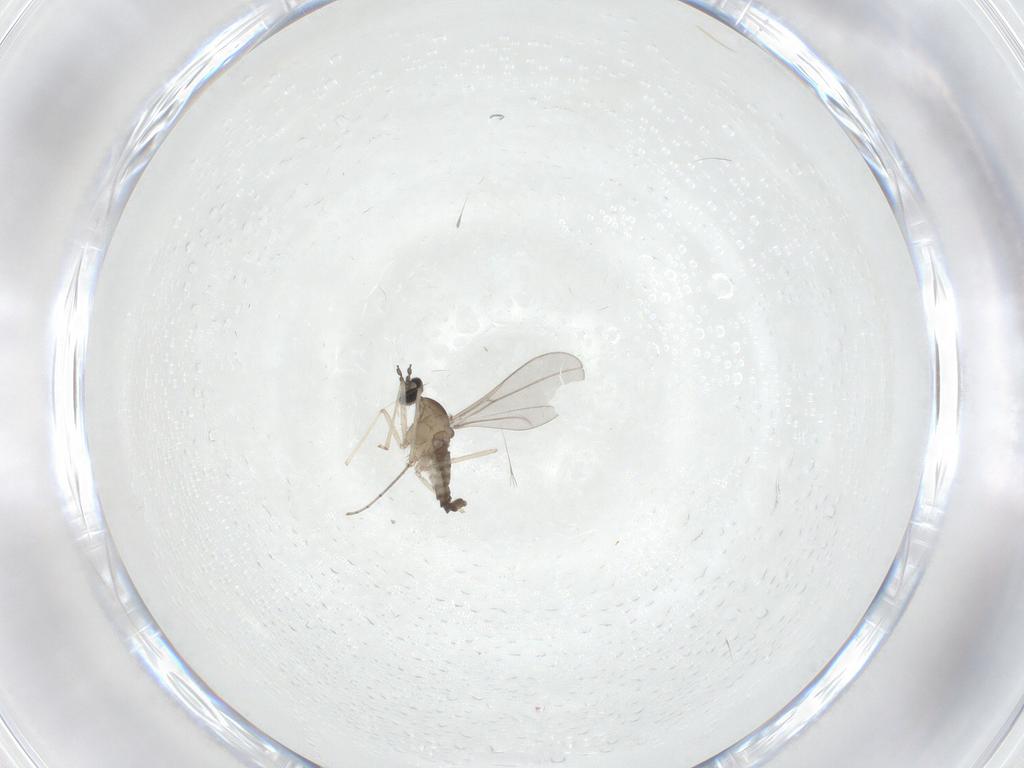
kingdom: Animalia
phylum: Arthropoda
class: Insecta
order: Diptera
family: Cecidomyiidae
